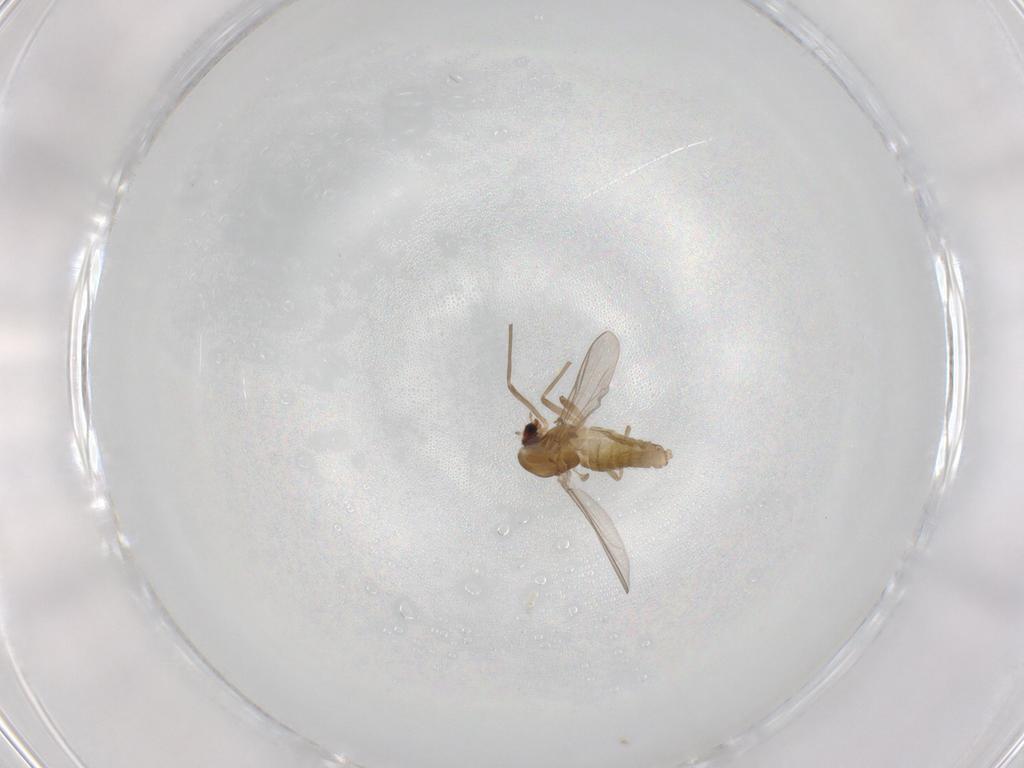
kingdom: Animalia
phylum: Arthropoda
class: Insecta
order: Diptera
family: Chironomidae
